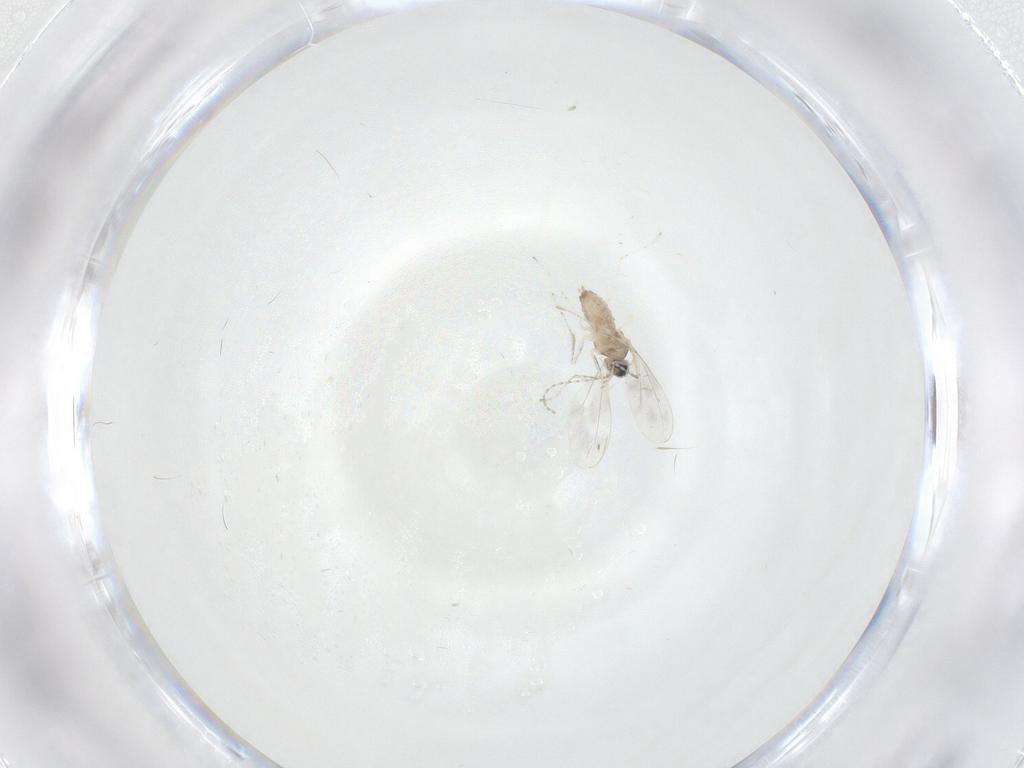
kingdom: Animalia
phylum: Arthropoda
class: Insecta
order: Diptera
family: Cecidomyiidae
